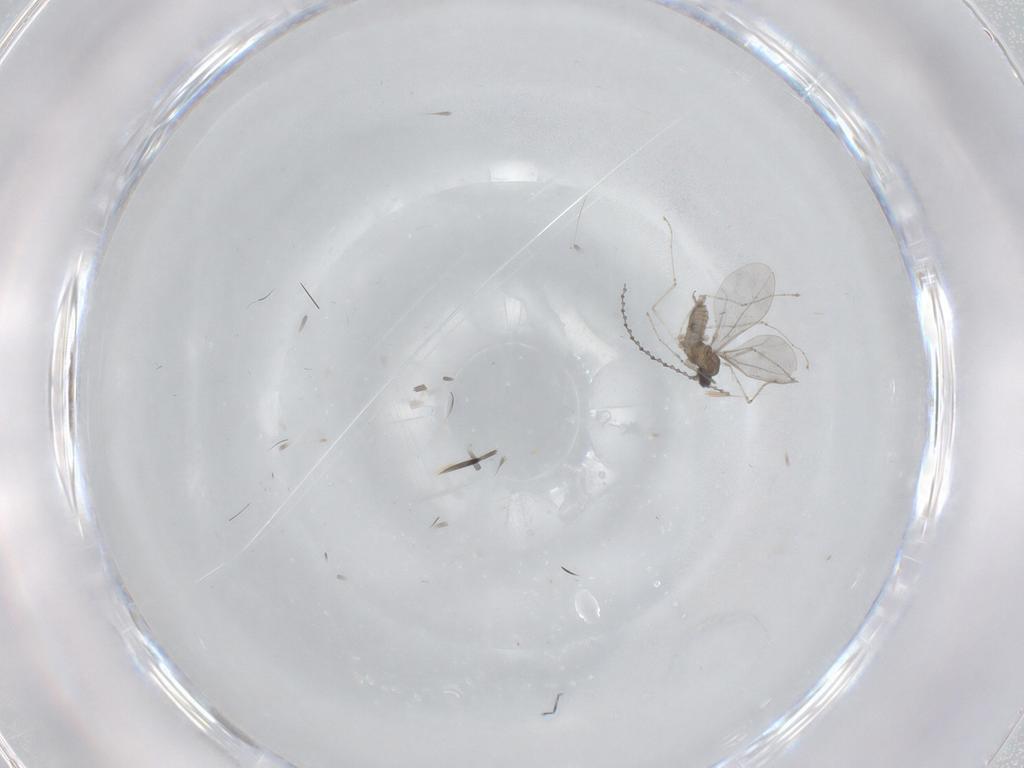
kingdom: Animalia
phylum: Arthropoda
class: Insecta
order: Diptera
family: Cecidomyiidae
